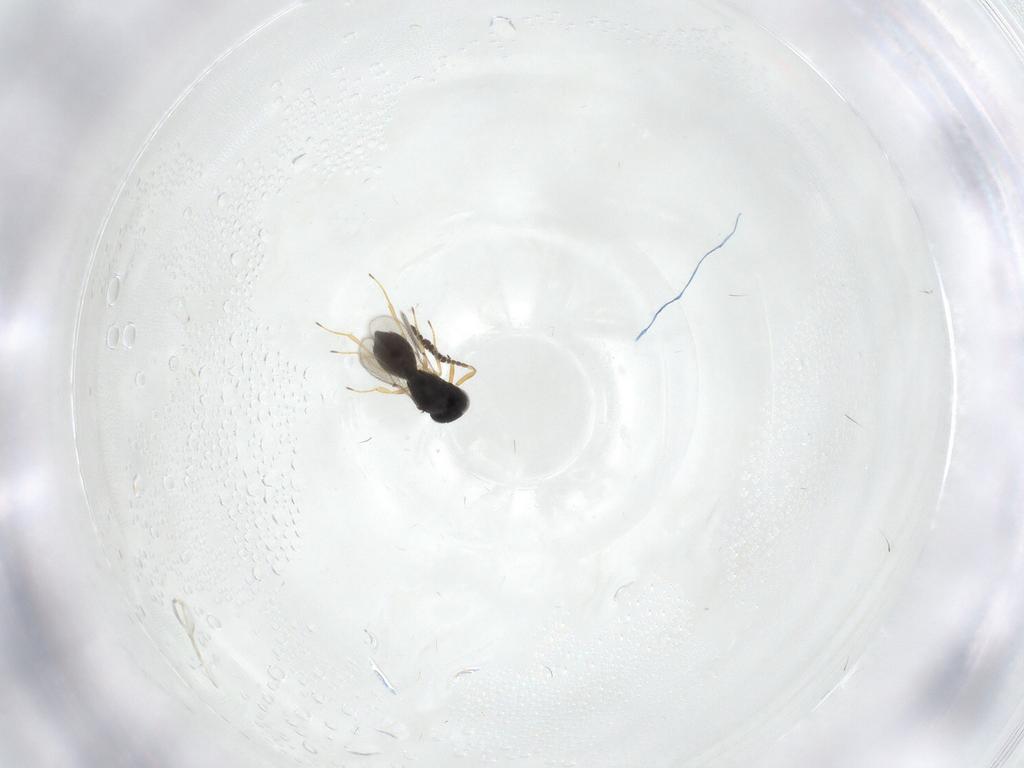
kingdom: Animalia
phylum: Arthropoda
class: Insecta
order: Hymenoptera
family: Scelionidae
